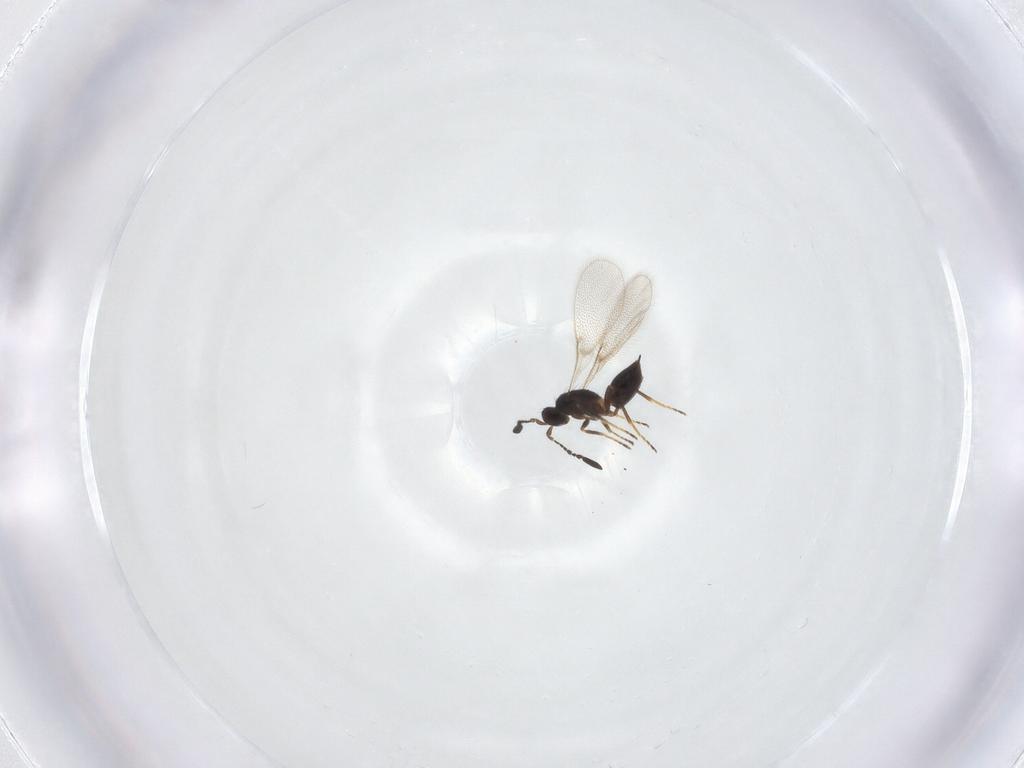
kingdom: Animalia
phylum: Arthropoda
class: Insecta
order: Hymenoptera
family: Mymaridae
